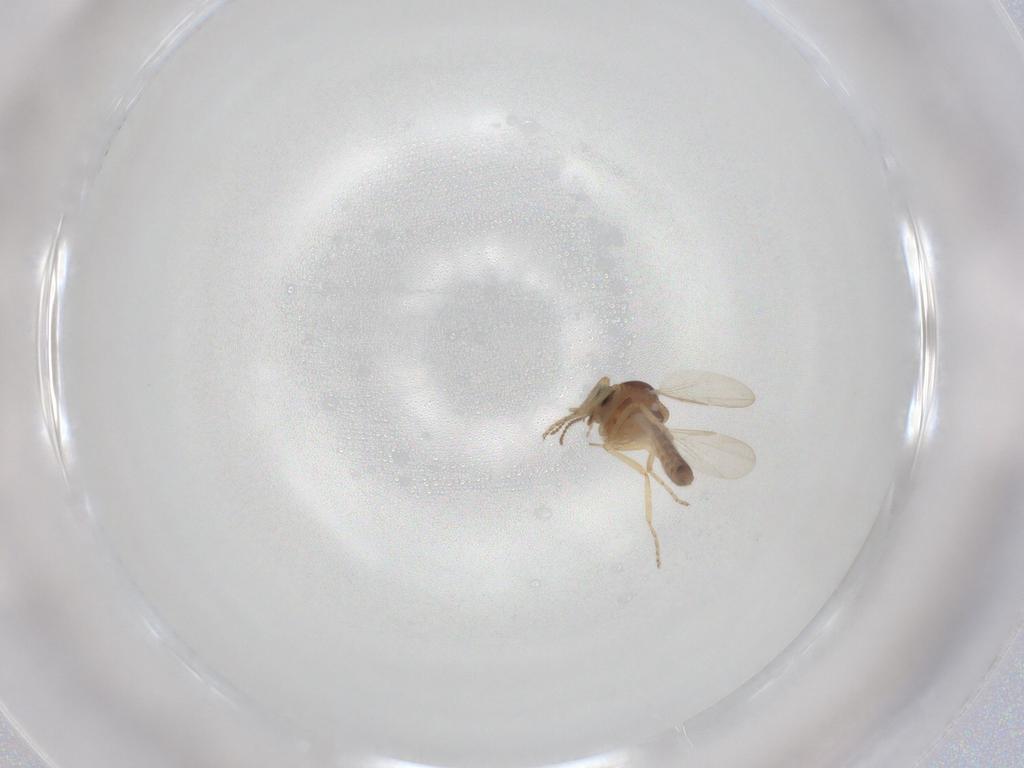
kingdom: Animalia
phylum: Arthropoda
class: Insecta
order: Diptera
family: Ceratopogonidae
